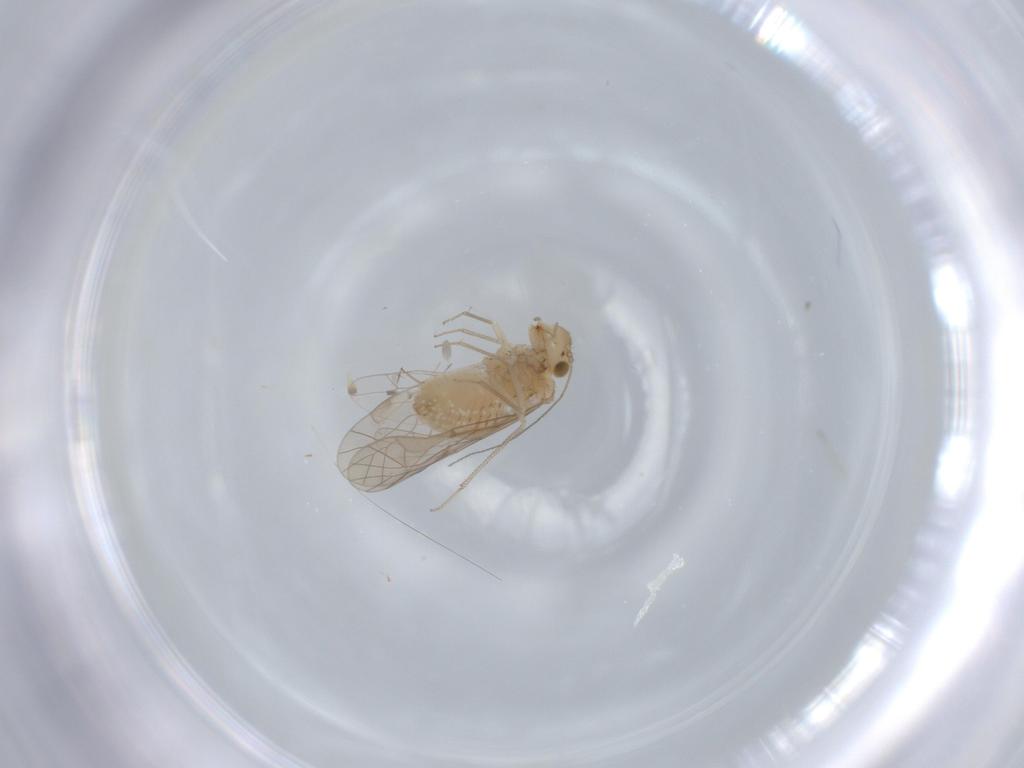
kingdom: Animalia
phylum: Arthropoda
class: Insecta
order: Psocodea
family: Lachesillidae
